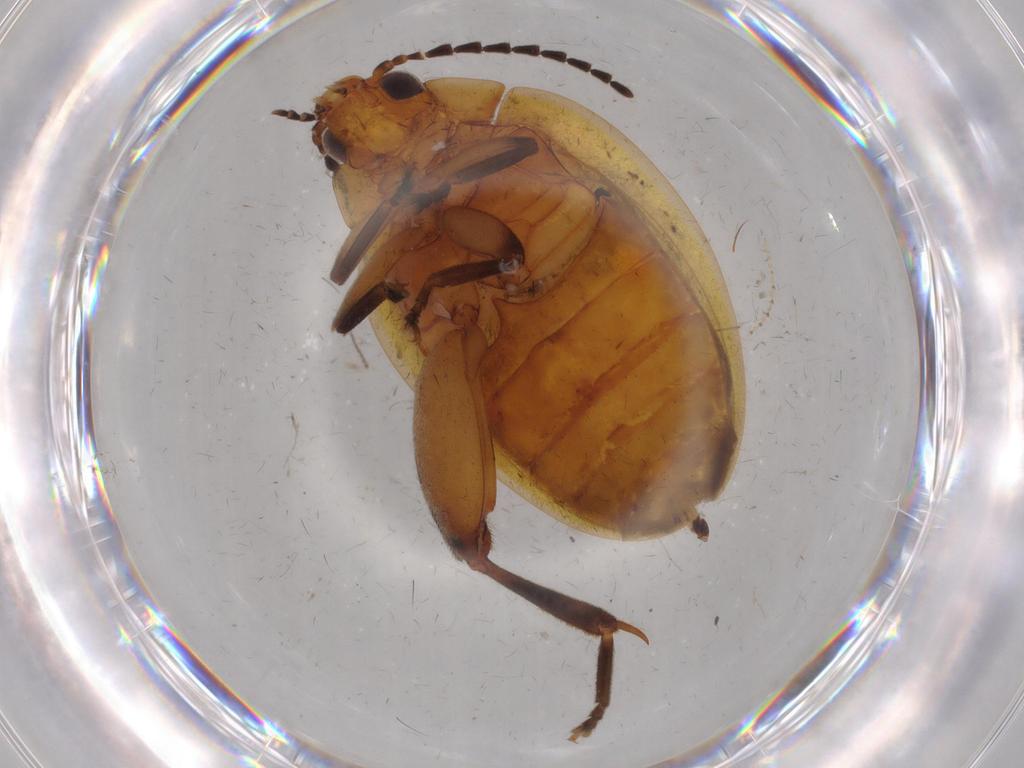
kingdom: Animalia
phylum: Arthropoda
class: Insecta
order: Coleoptera
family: Scirtidae
